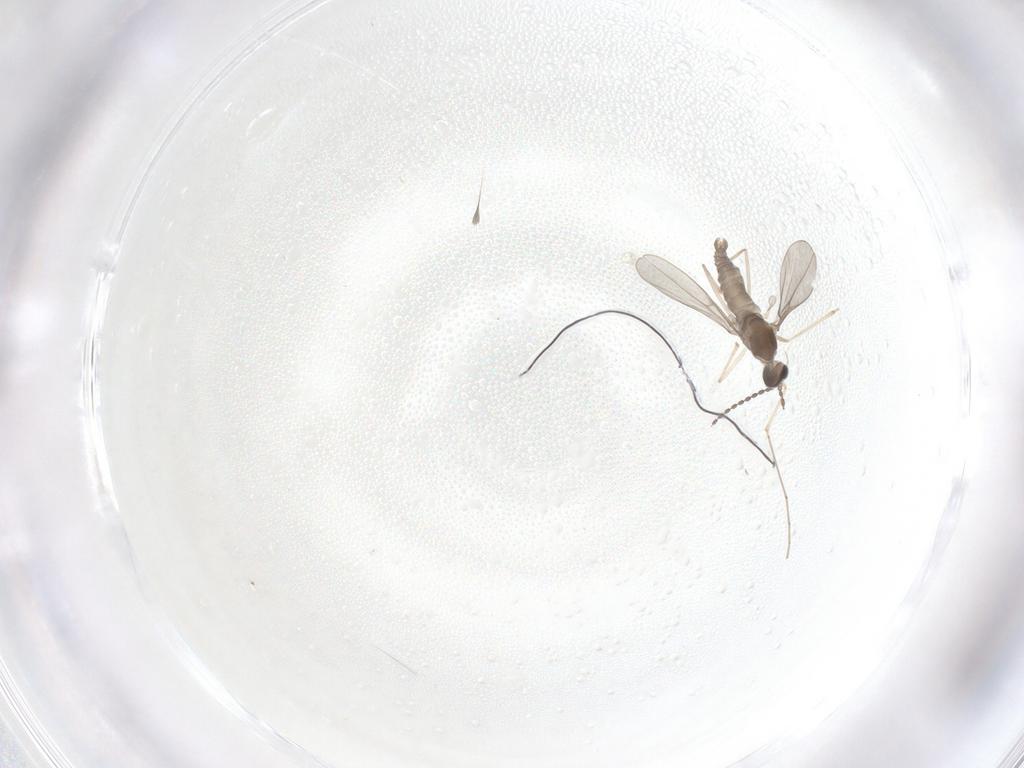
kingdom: Animalia
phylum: Arthropoda
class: Insecta
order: Diptera
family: Cecidomyiidae
